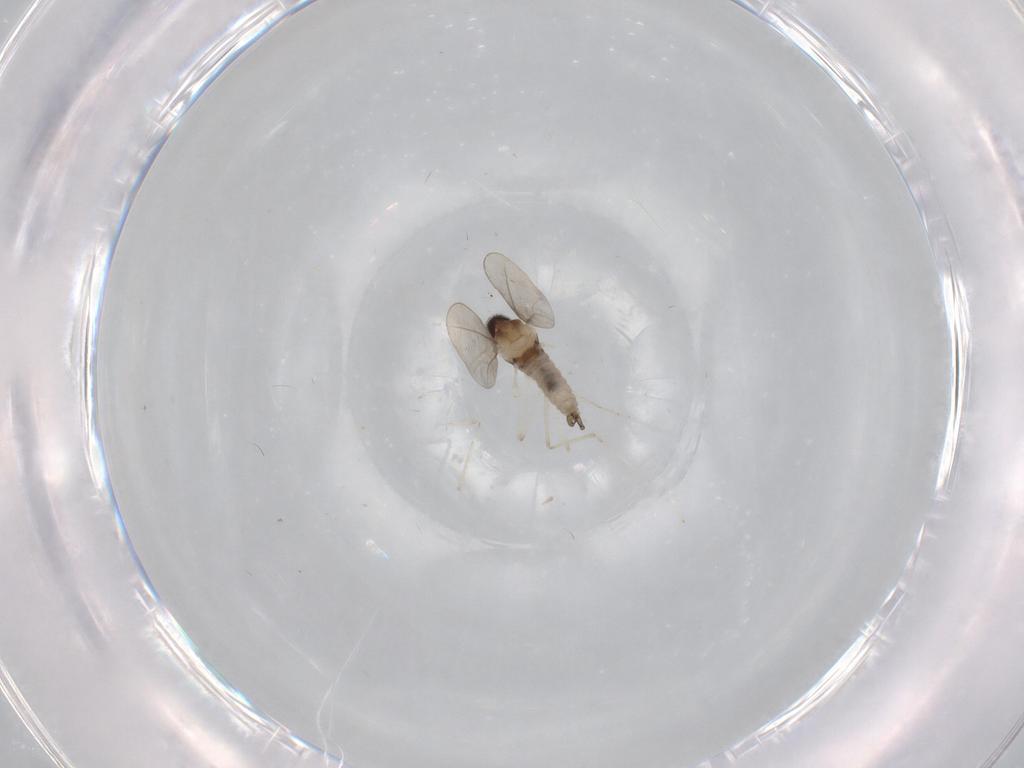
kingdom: Animalia
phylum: Arthropoda
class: Insecta
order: Diptera
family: Cecidomyiidae
